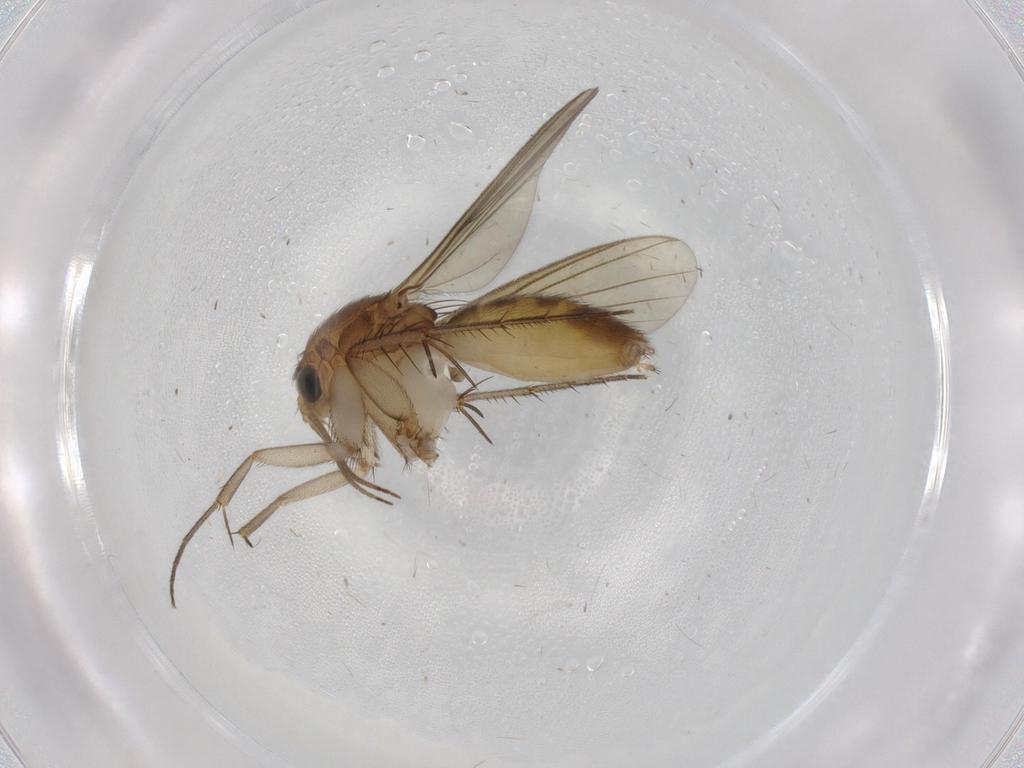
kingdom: Animalia
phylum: Arthropoda
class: Insecta
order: Diptera
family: Mycetophilidae
